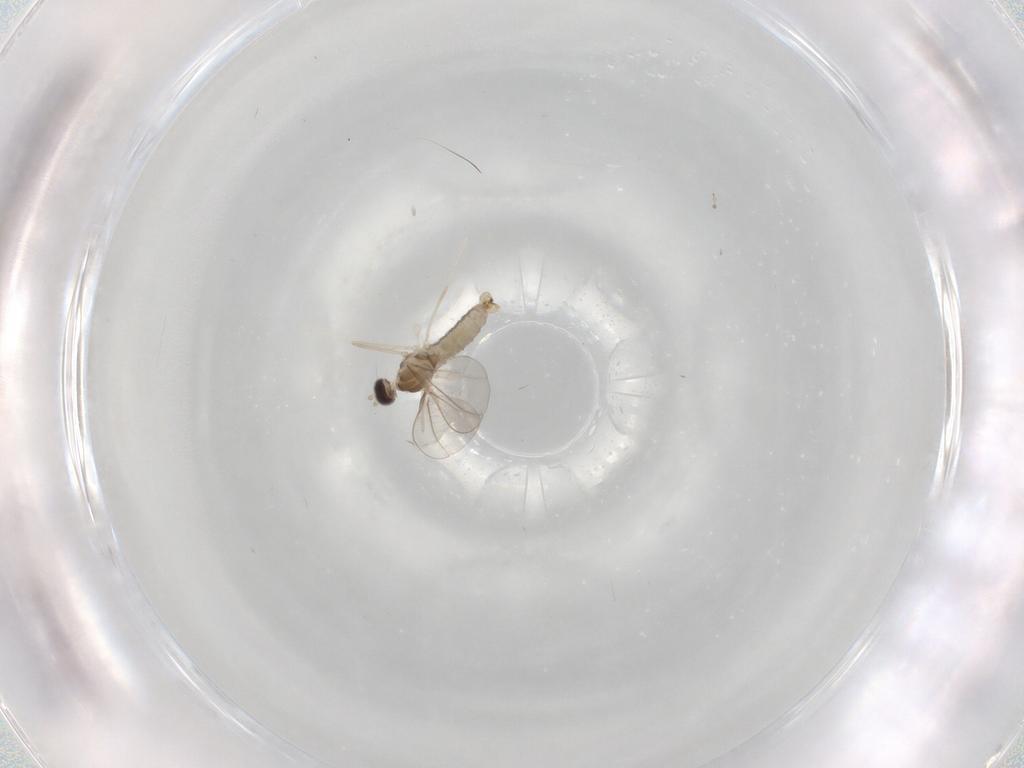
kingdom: Animalia
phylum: Arthropoda
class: Insecta
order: Diptera
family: Cecidomyiidae
